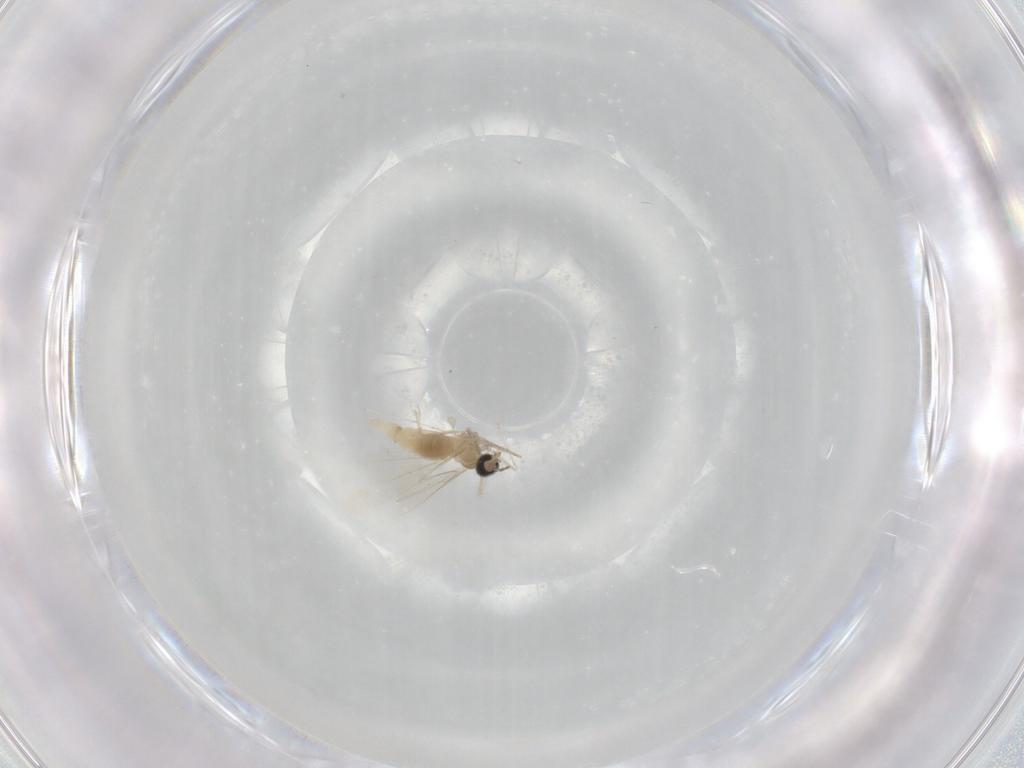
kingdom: Animalia
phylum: Arthropoda
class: Insecta
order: Diptera
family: Cecidomyiidae
